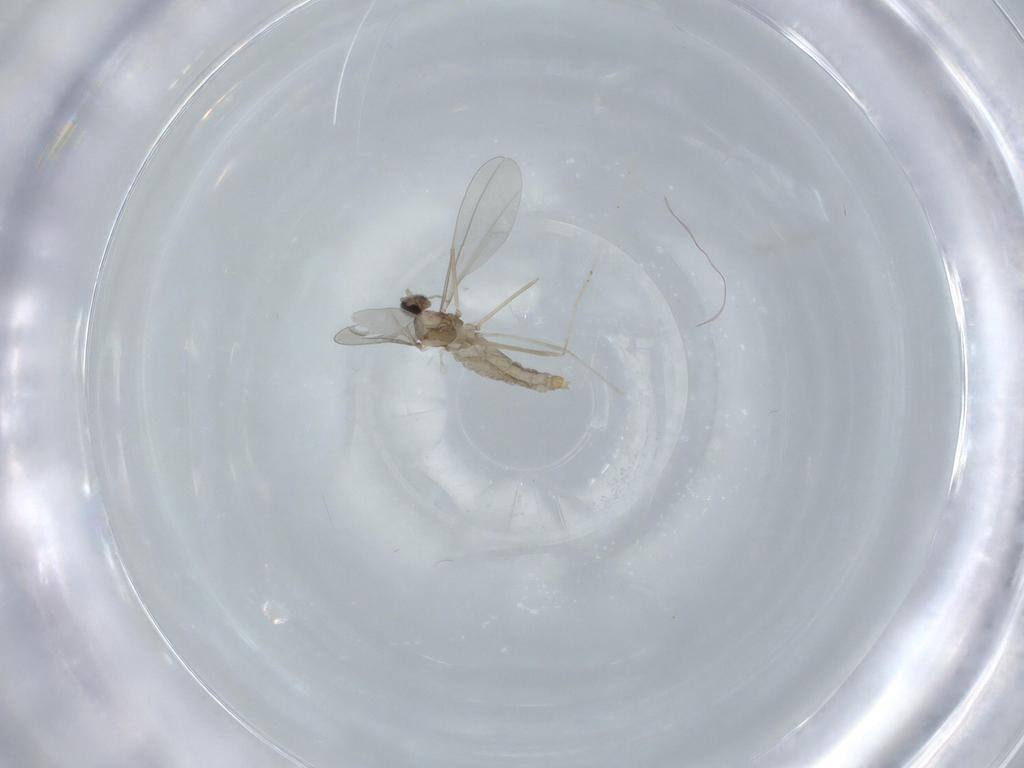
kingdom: Animalia
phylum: Arthropoda
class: Insecta
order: Diptera
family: Cecidomyiidae
